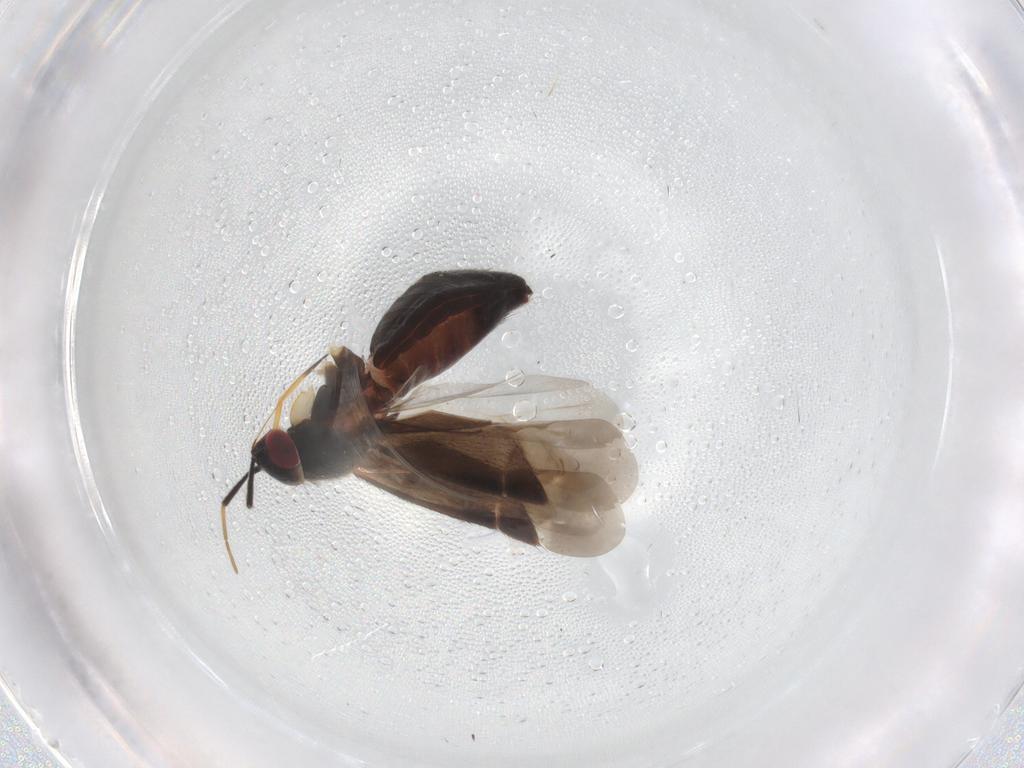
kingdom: Animalia
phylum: Arthropoda
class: Insecta
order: Hemiptera
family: Miridae
